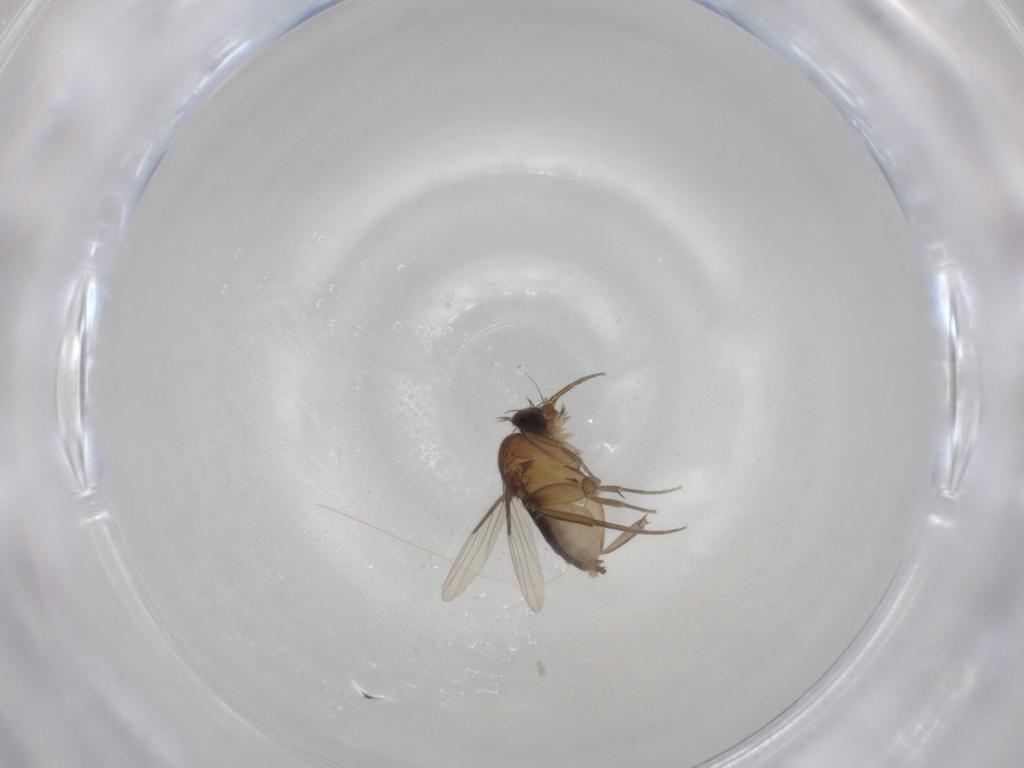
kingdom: Animalia
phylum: Arthropoda
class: Insecta
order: Diptera
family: Phoridae
